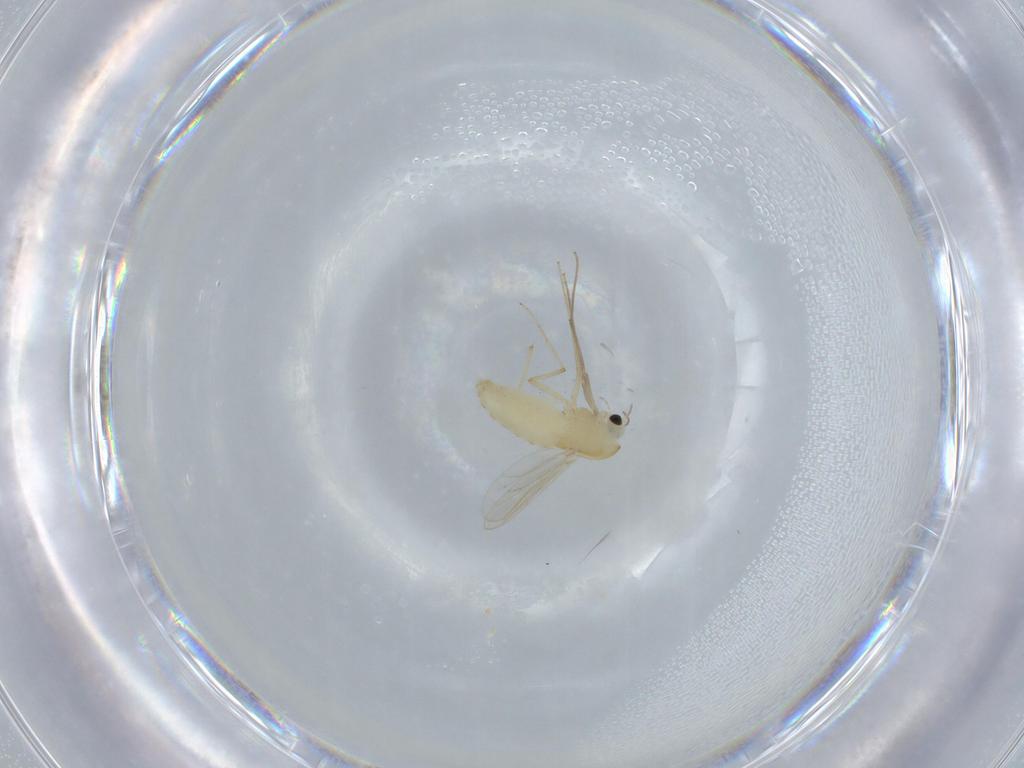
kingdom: Animalia
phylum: Arthropoda
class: Insecta
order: Diptera
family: Chironomidae
